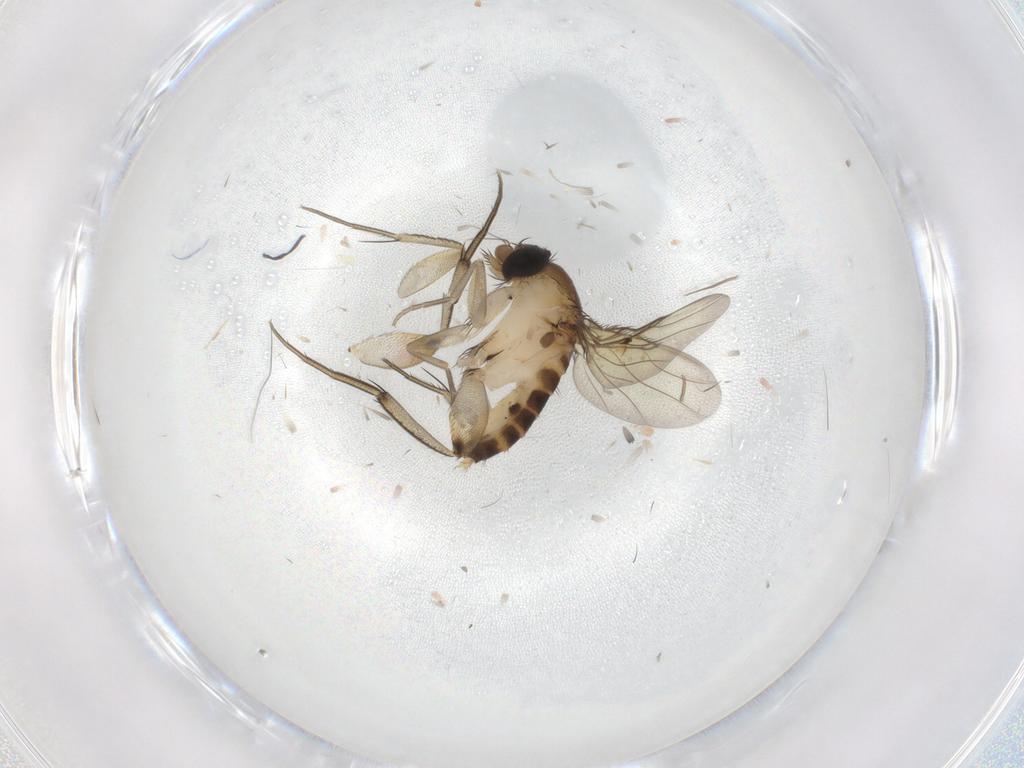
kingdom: Animalia
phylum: Arthropoda
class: Insecta
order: Diptera
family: Phoridae
